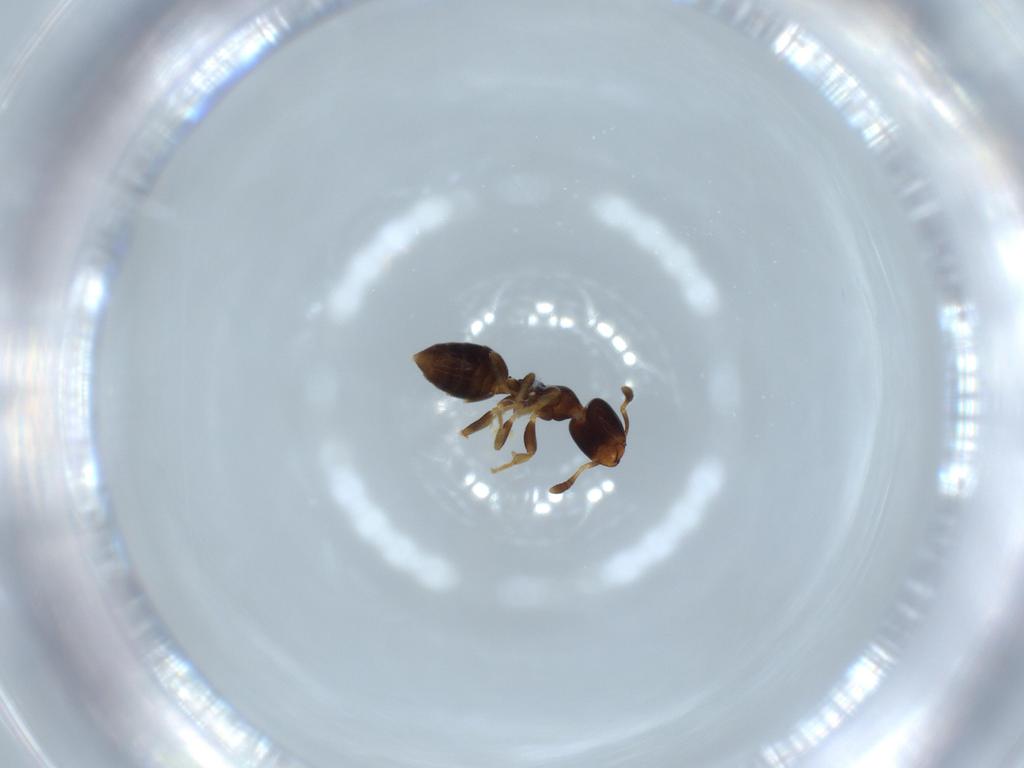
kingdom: Animalia
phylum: Arthropoda
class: Insecta
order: Hymenoptera
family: Formicidae
